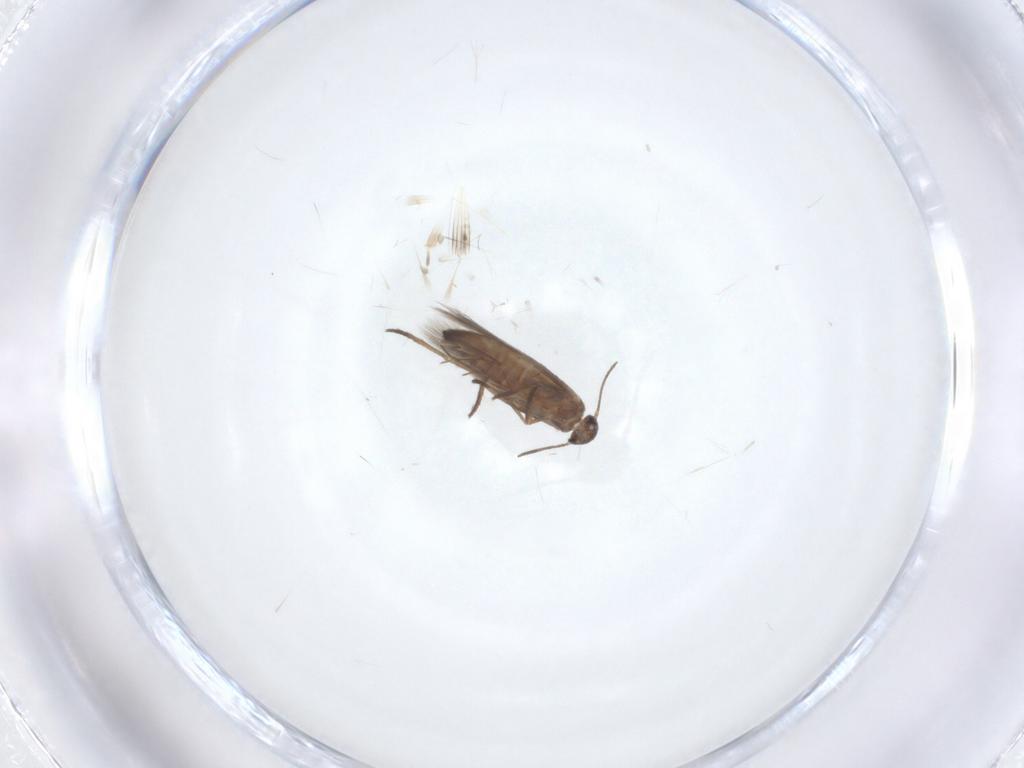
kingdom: Animalia
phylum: Arthropoda
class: Insecta
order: Lepidoptera
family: Heliozelidae
